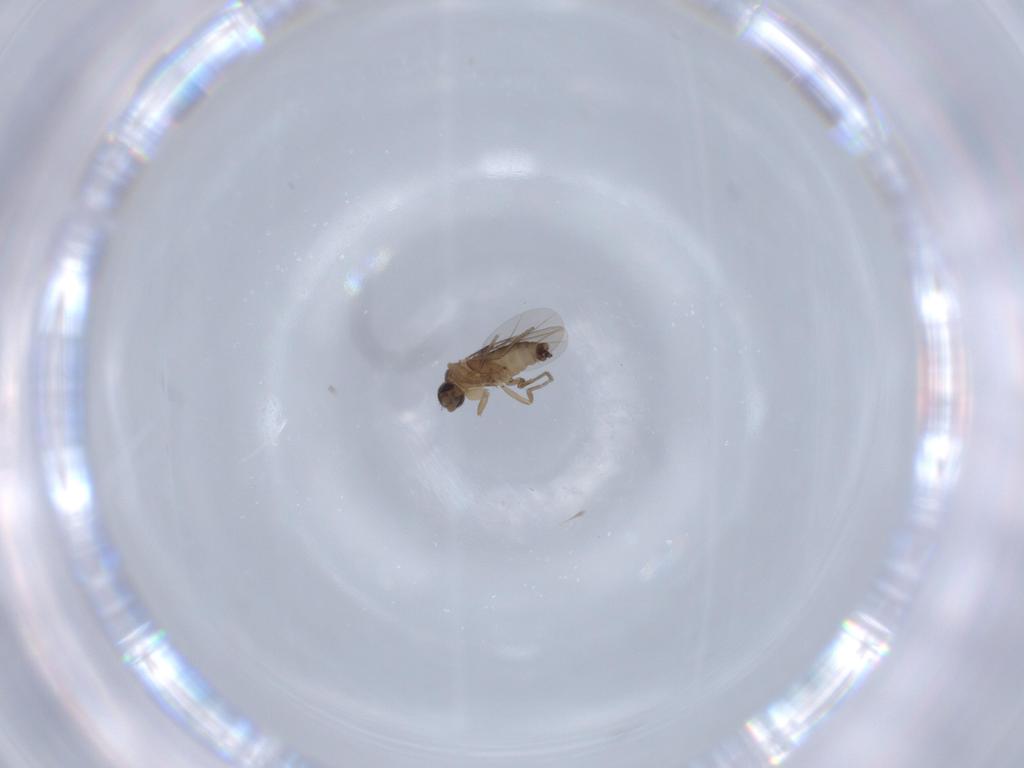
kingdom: Animalia
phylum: Arthropoda
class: Insecta
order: Diptera
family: Phoridae
